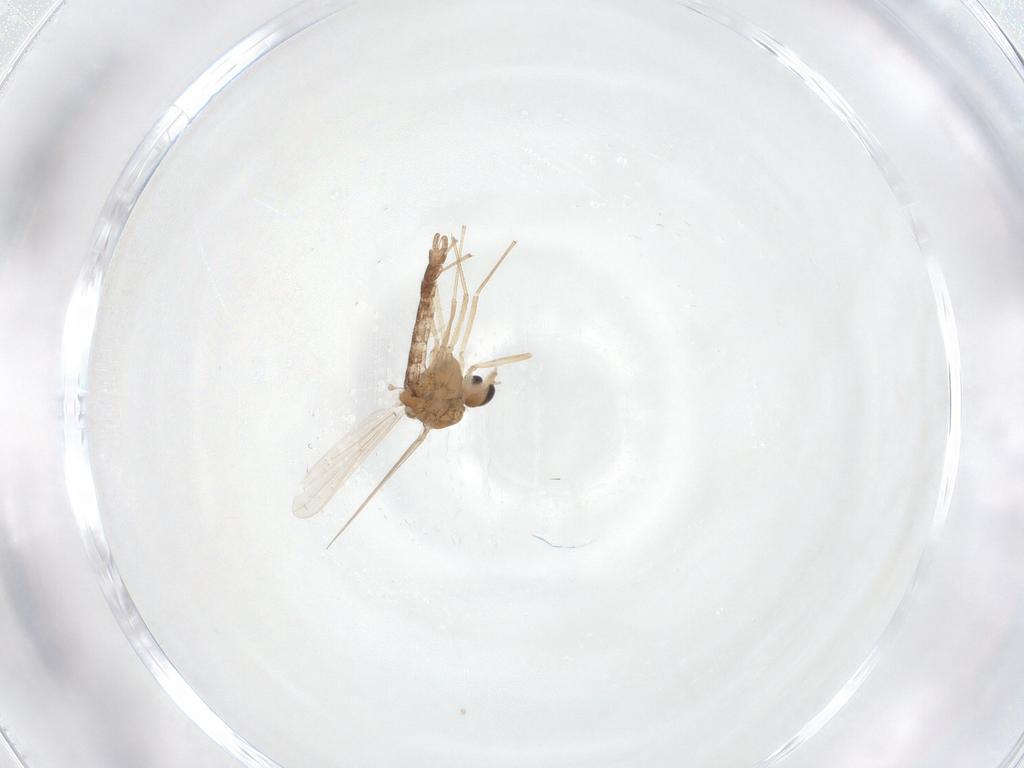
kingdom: Animalia
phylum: Arthropoda
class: Insecta
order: Diptera
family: Chironomidae
